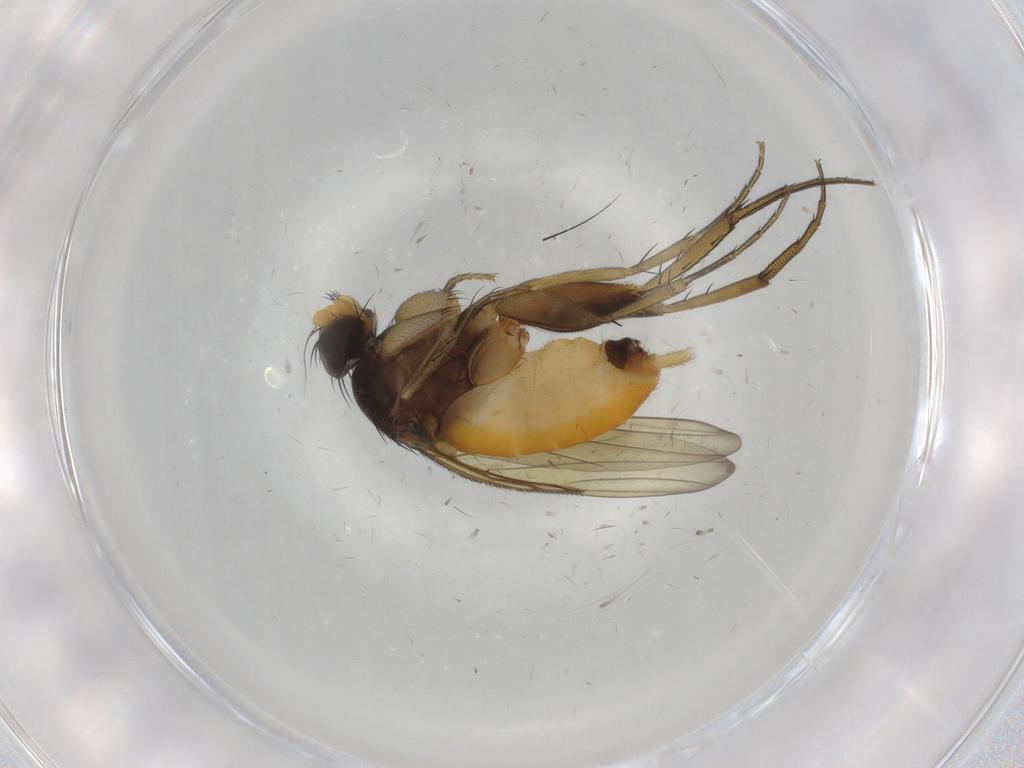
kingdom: Animalia
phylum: Arthropoda
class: Insecta
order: Diptera
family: Phoridae
